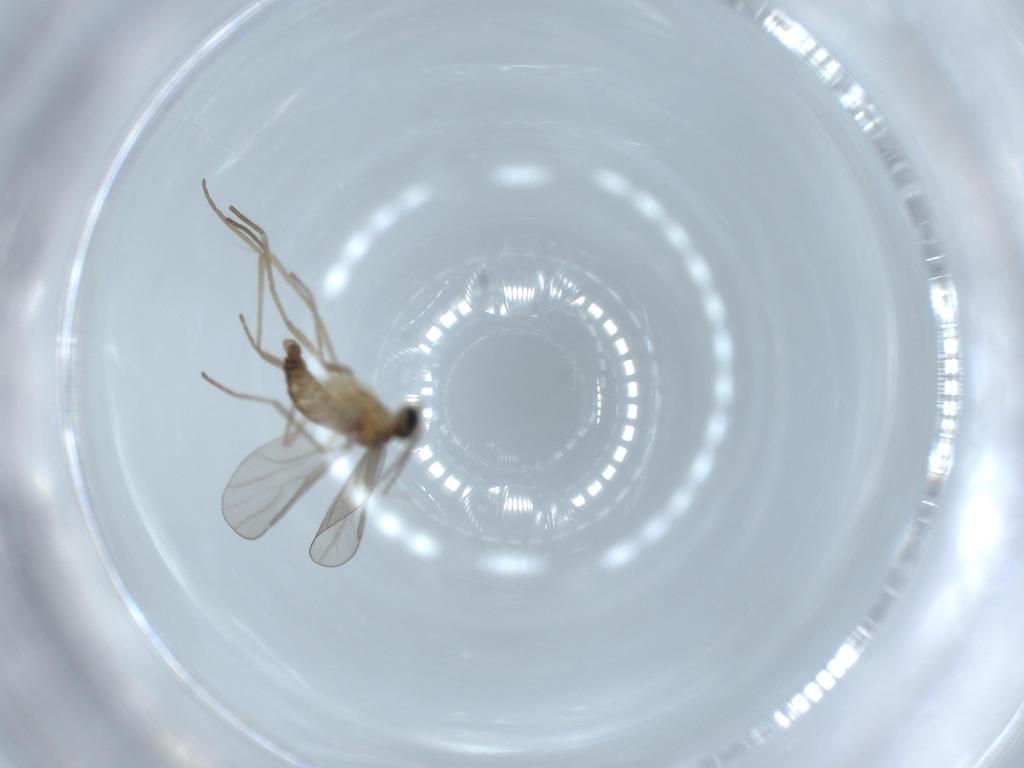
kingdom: Animalia
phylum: Arthropoda
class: Insecta
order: Diptera
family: Cecidomyiidae
